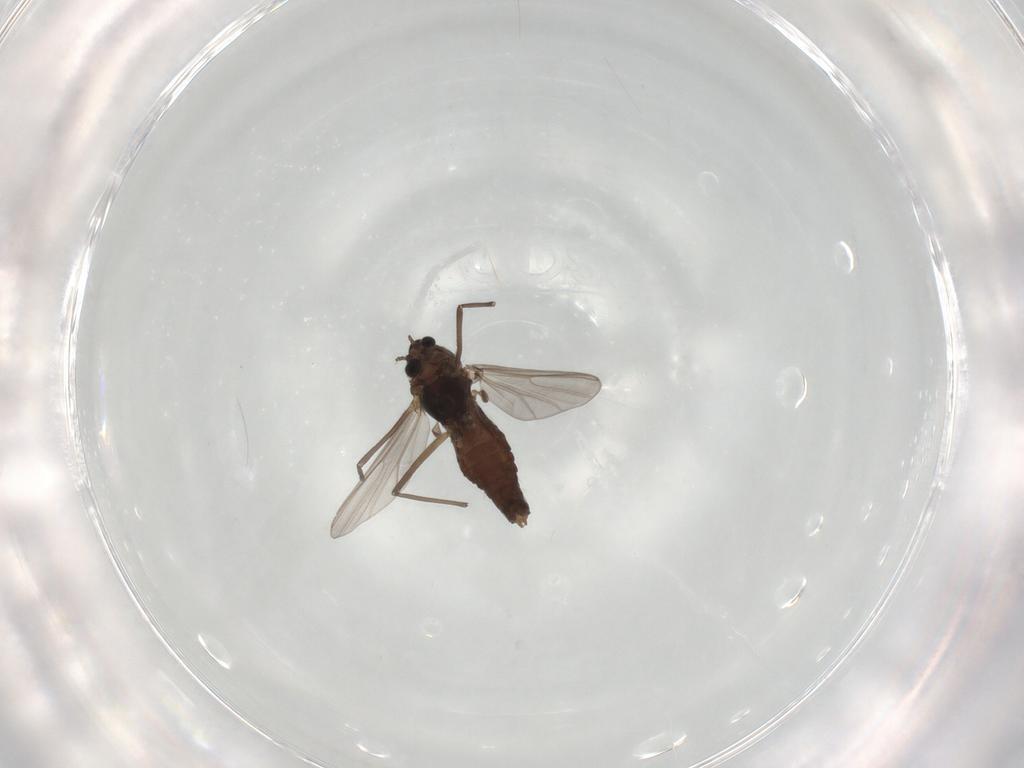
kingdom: Animalia
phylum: Arthropoda
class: Insecta
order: Diptera
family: Chironomidae
